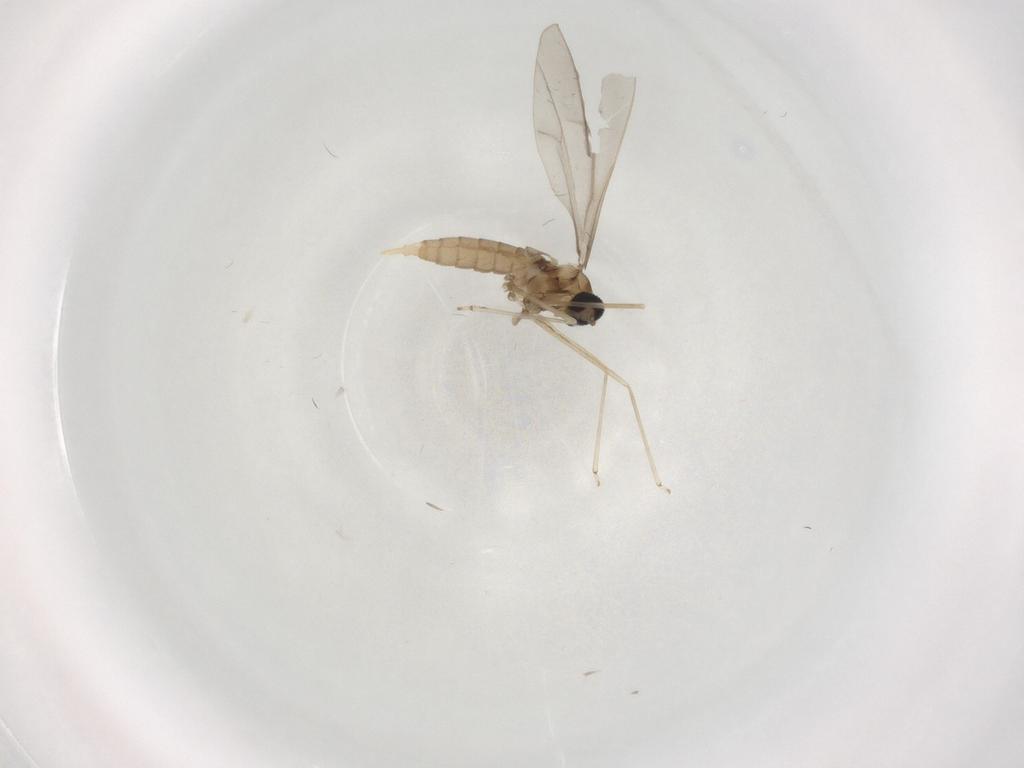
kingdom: Animalia
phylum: Arthropoda
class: Insecta
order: Diptera
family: Cecidomyiidae
